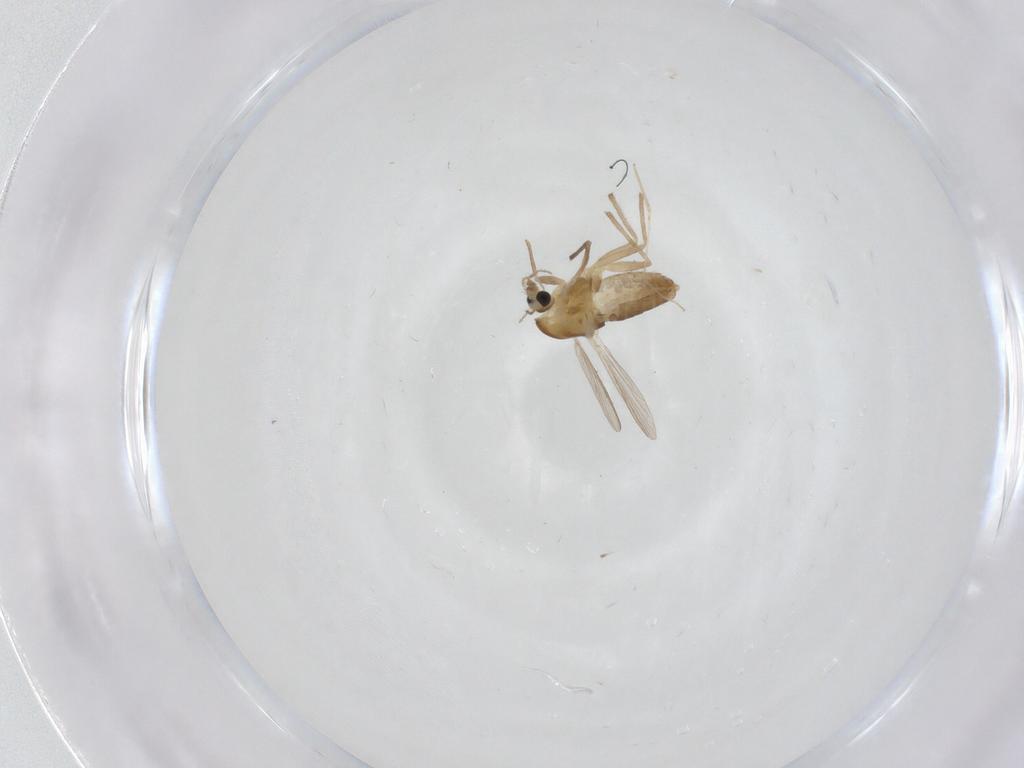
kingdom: Animalia
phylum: Arthropoda
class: Insecta
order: Diptera
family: Chironomidae
